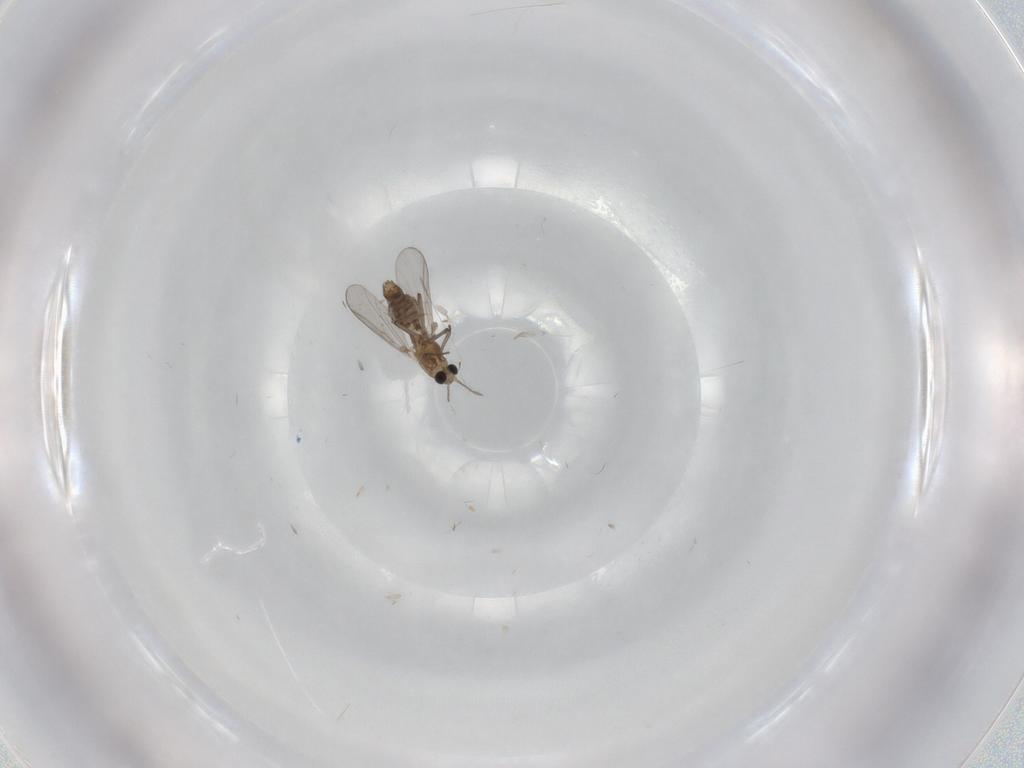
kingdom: Animalia
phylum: Arthropoda
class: Insecta
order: Diptera
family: Chironomidae
